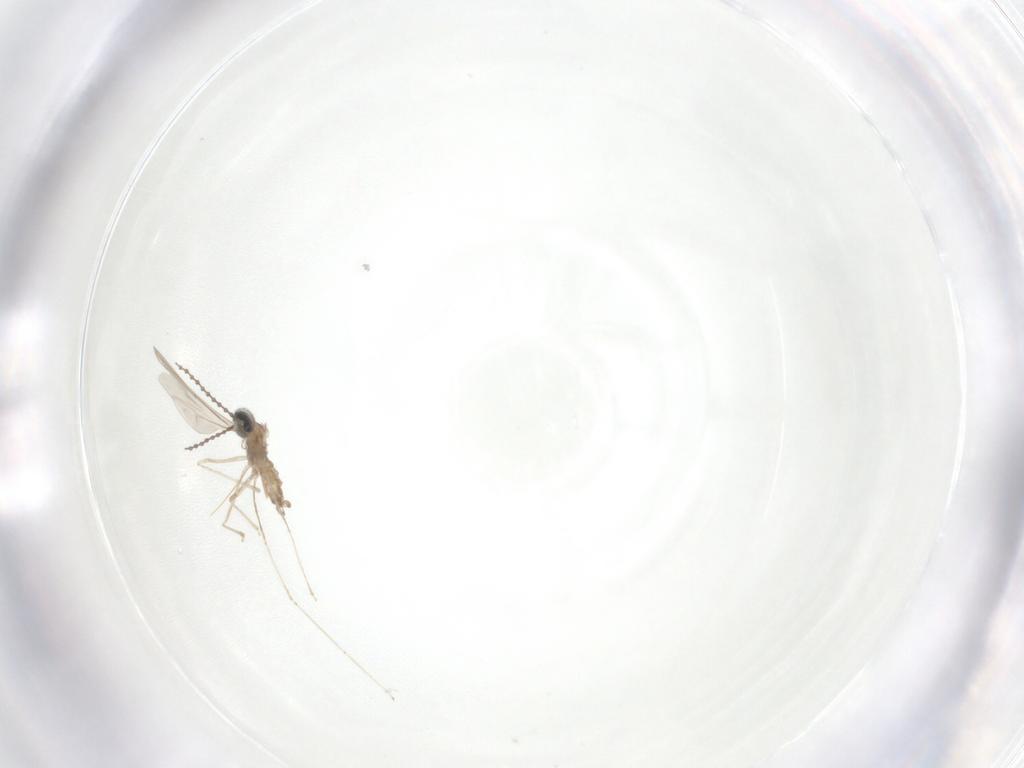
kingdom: Animalia
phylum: Arthropoda
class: Insecta
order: Diptera
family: Cecidomyiidae
